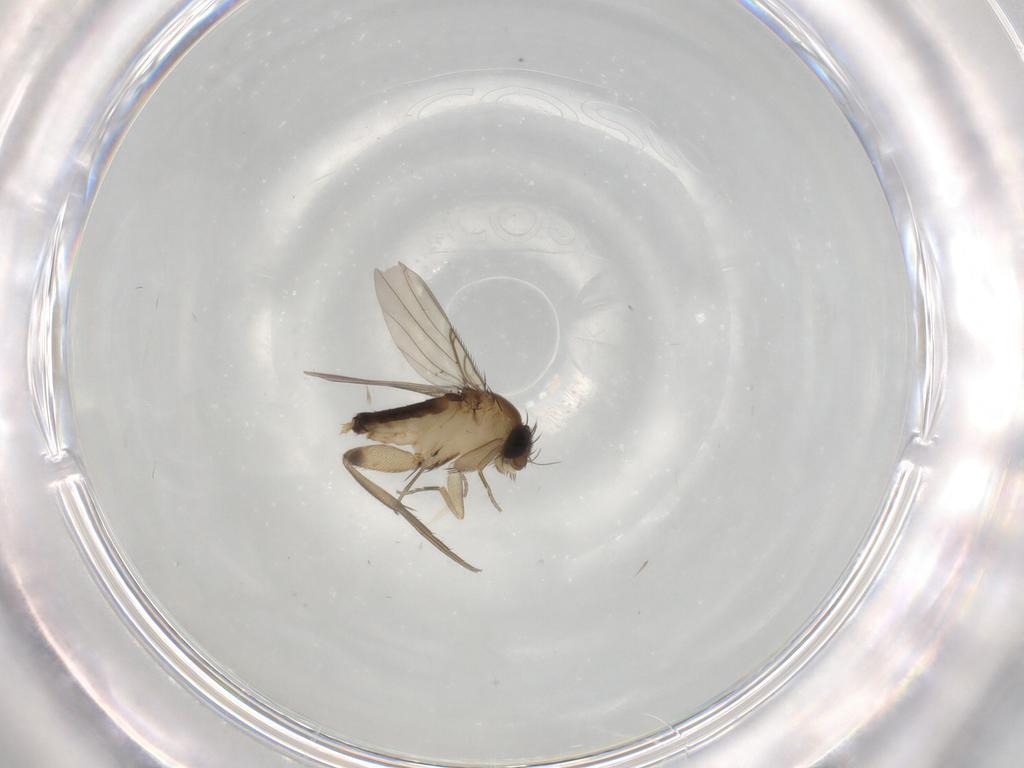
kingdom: Animalia
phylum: Arthropoda
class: Insecta
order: Diptera
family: Phoridae
